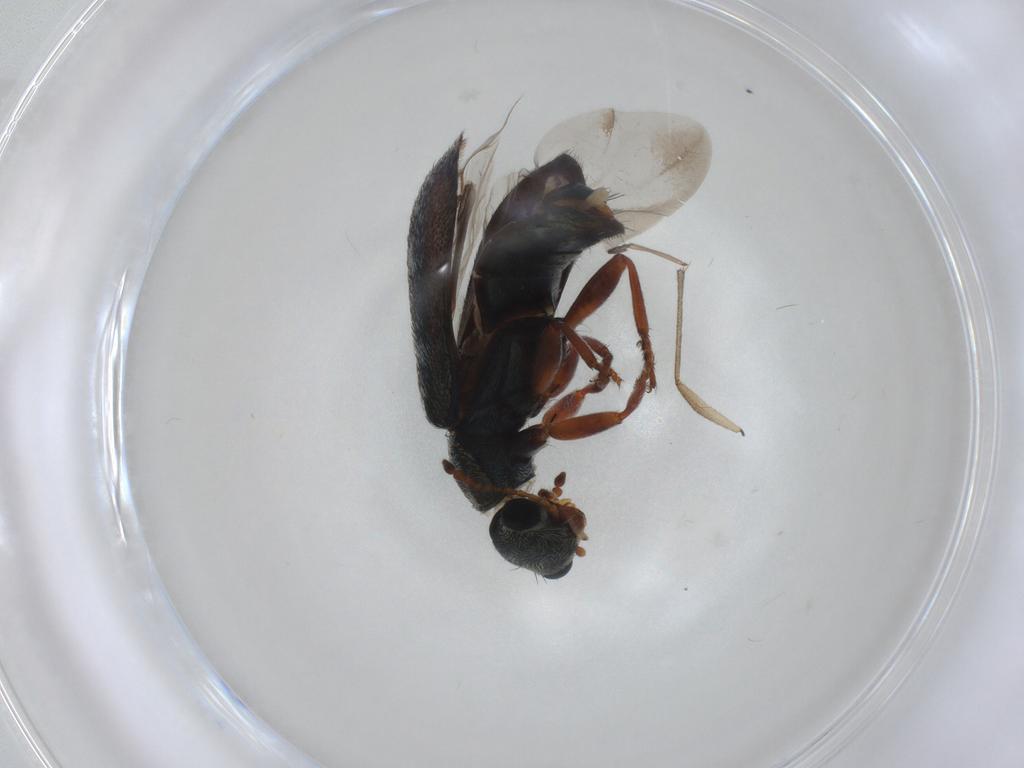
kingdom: Animalia
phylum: Arthropoda
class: Insecta
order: Coleoptera
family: Melyridae
